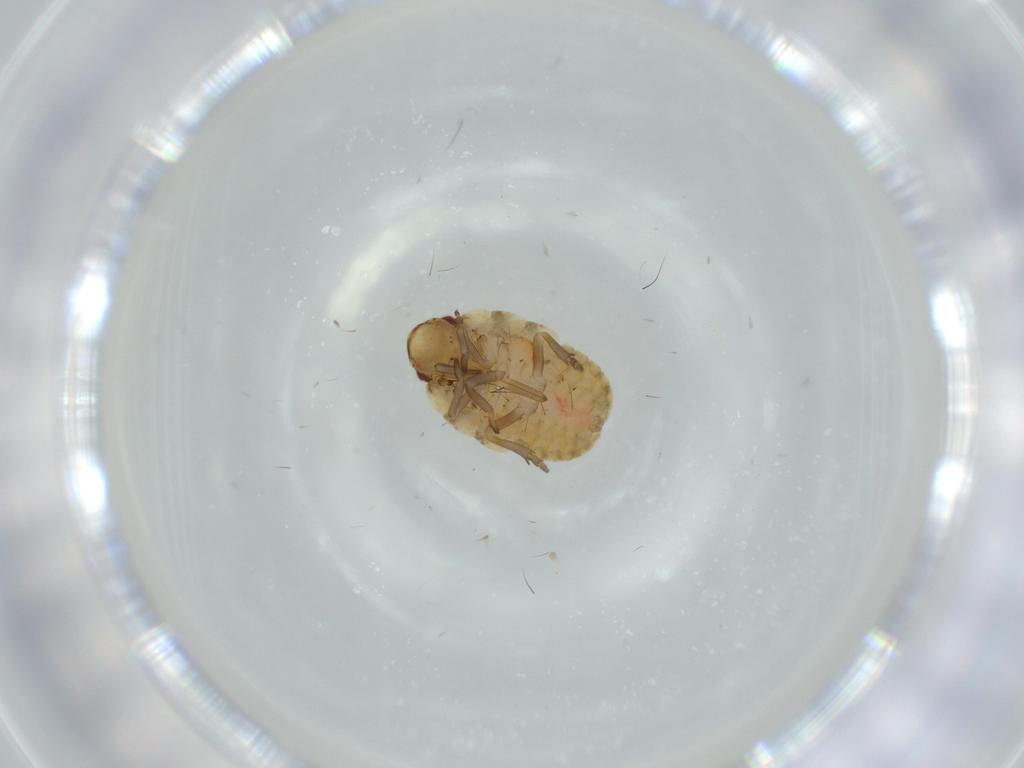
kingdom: Animalia
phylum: Arthropoda
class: Insecta
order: Hemiptera
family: Flatidae
